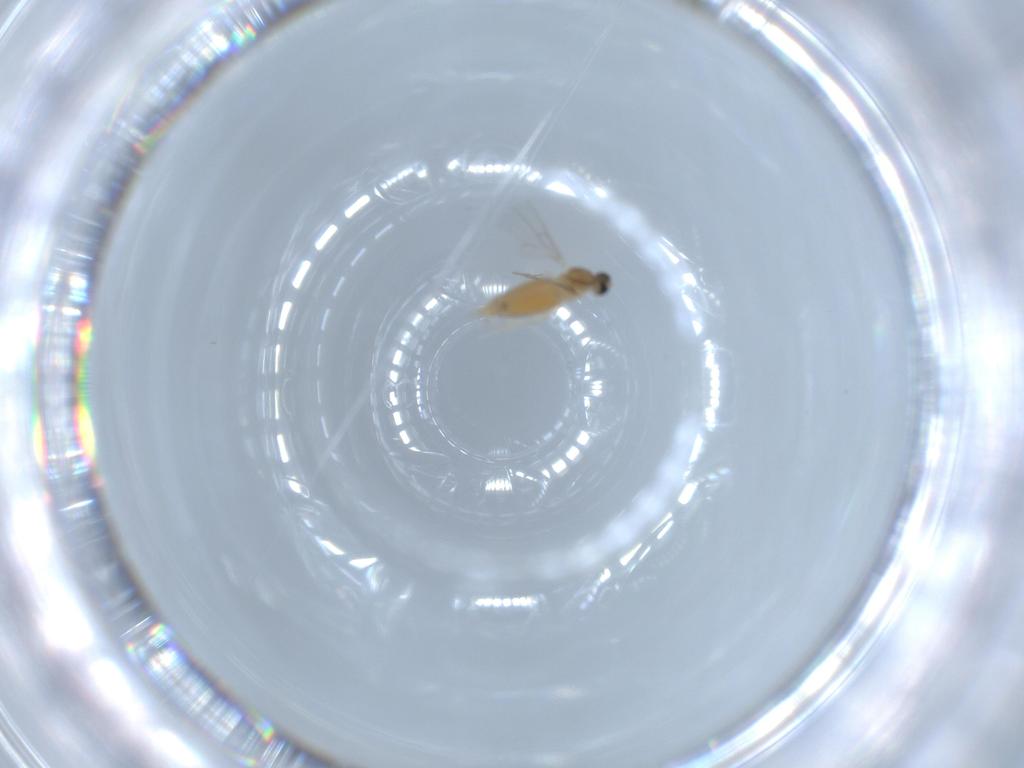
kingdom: Animalia
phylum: Arthropoda
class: Insecta
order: Diptera
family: Cecidomyiidae
